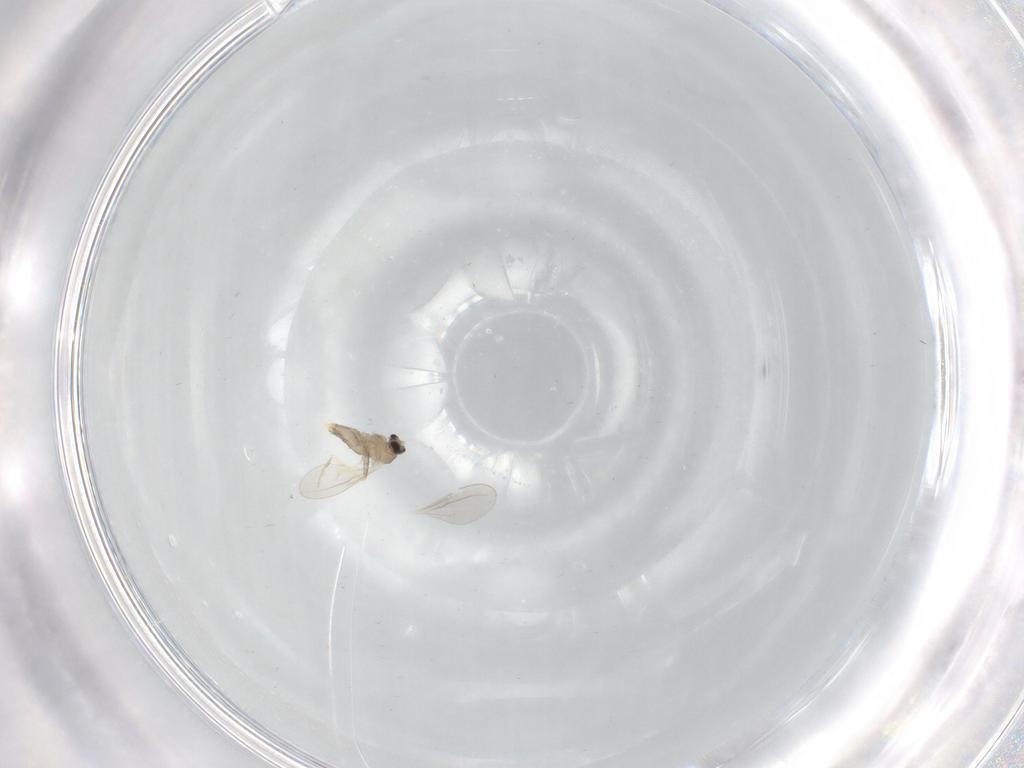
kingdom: Animalia
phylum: Arthropoda
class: Insecta
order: Diptera
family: Cecidomyiidae
